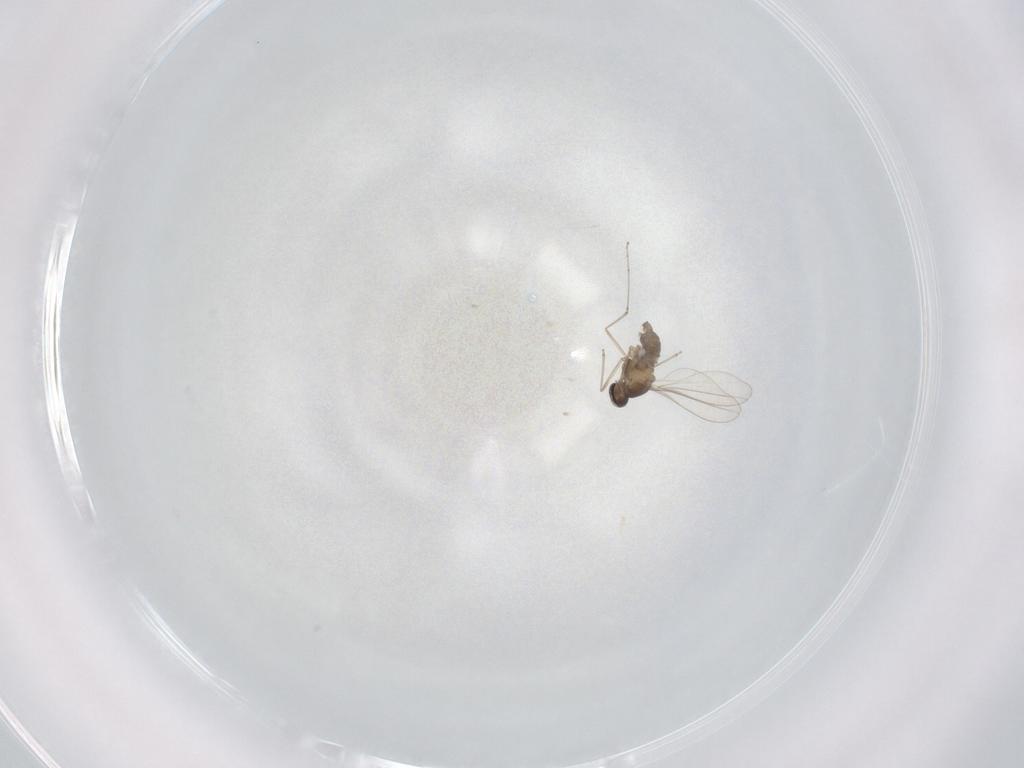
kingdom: Animalia
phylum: Arthropoda
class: Insecta
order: Diptera
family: Cecidomyiidae
